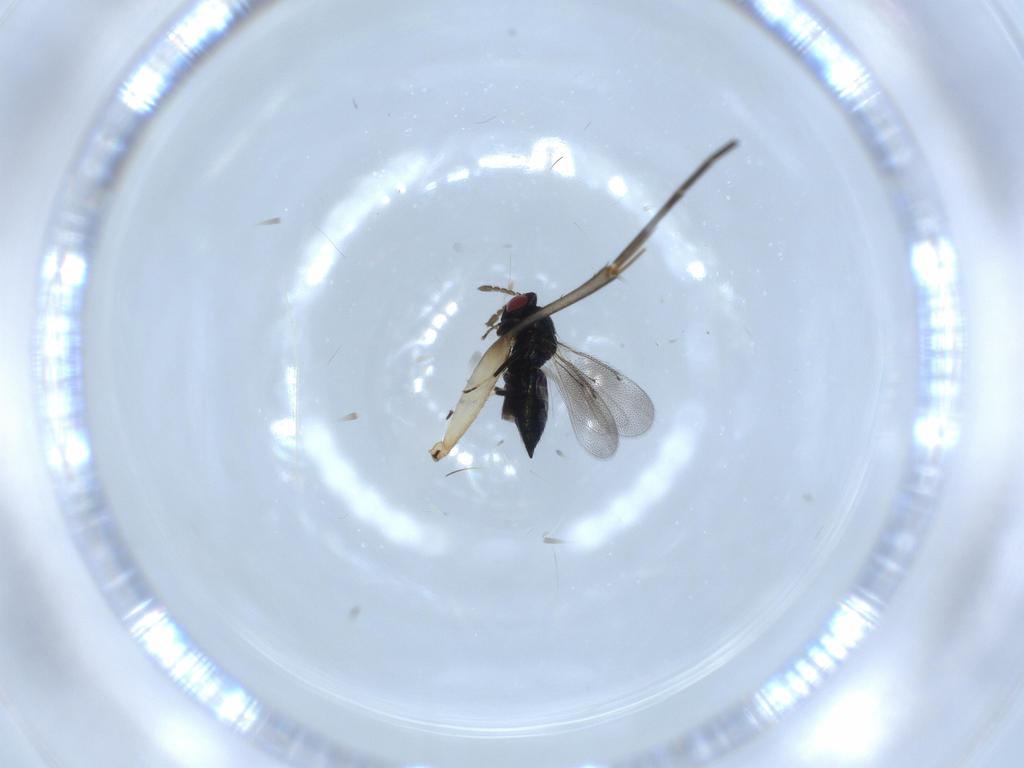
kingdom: Animalia
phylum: Arthropoda
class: Insecta
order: Hymenoptera
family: Eulophidae
